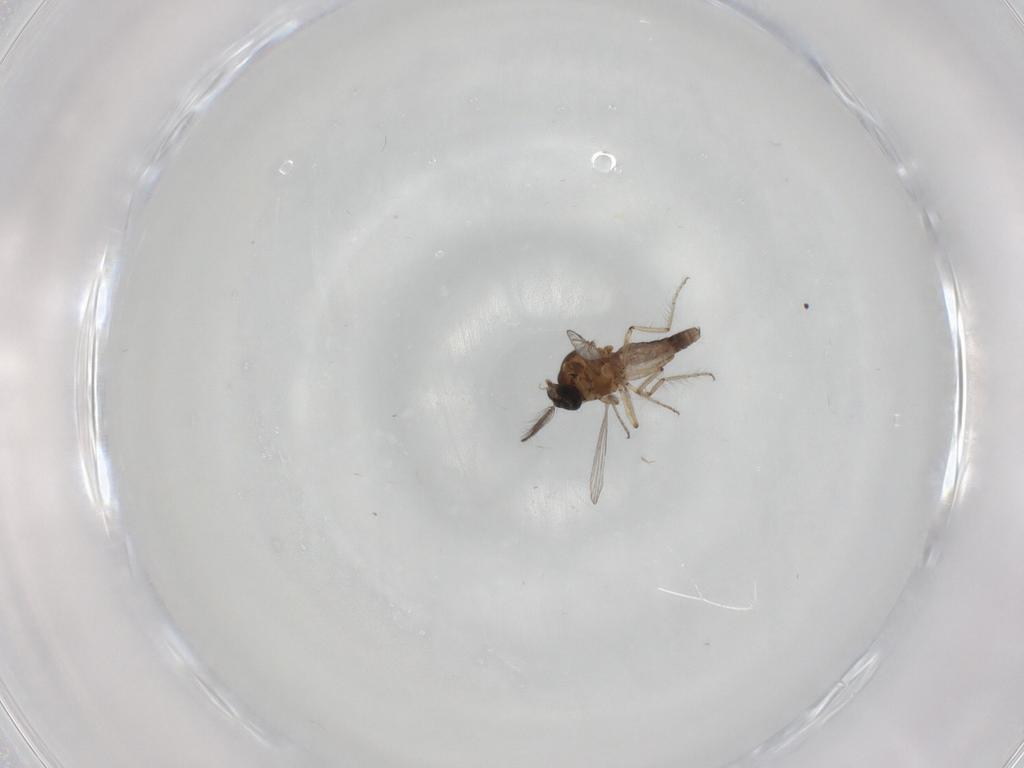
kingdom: Animalia
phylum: Arthropoda
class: Insecta
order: Diptera
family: Ceratopogonidae
